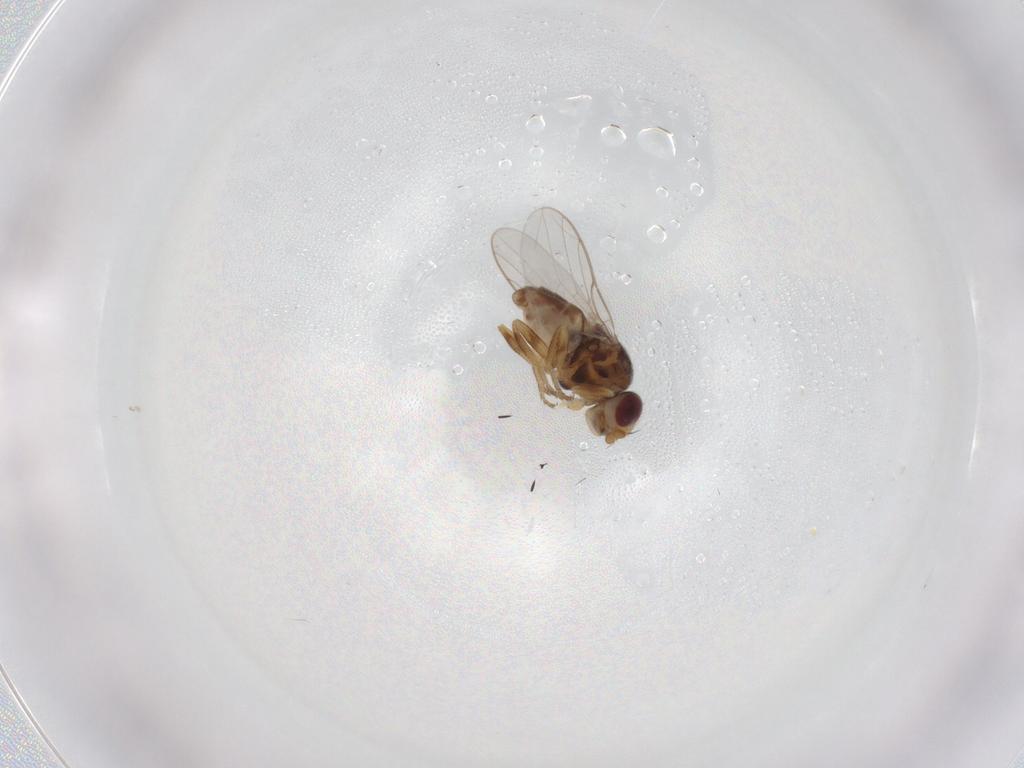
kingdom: Animalia
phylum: Arthropoda
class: Insecta
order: Diptera
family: Chloropidae
